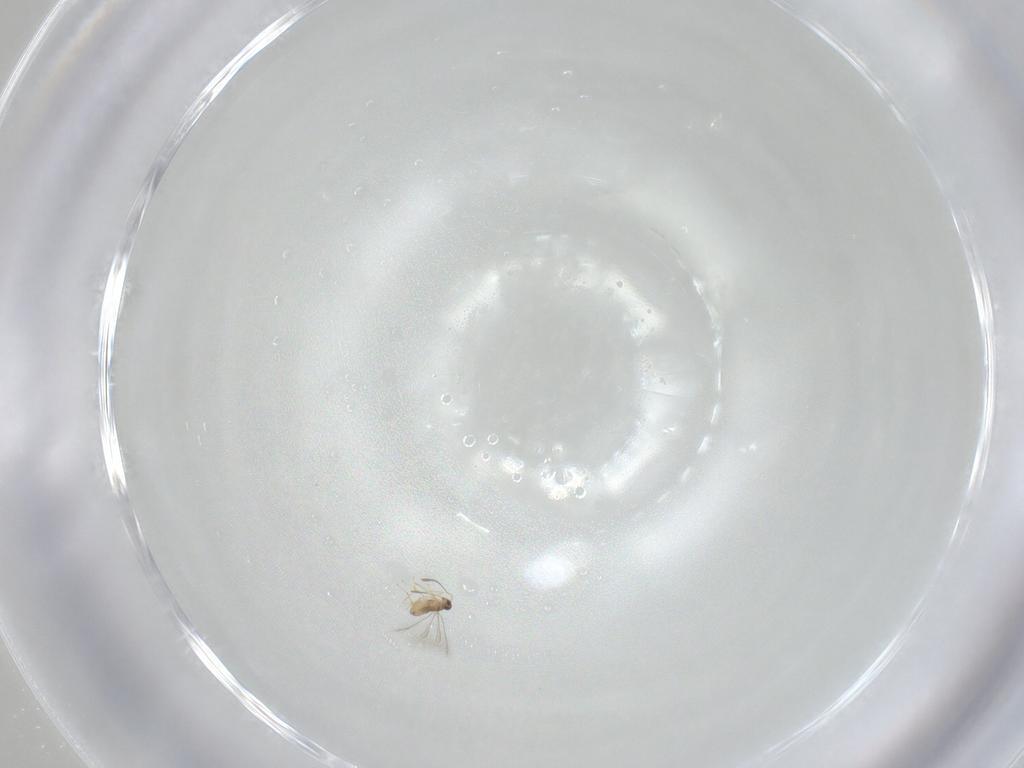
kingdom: Animalia
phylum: Arthropoda
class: Insecta
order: Hymenoptera
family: Mymaridae
